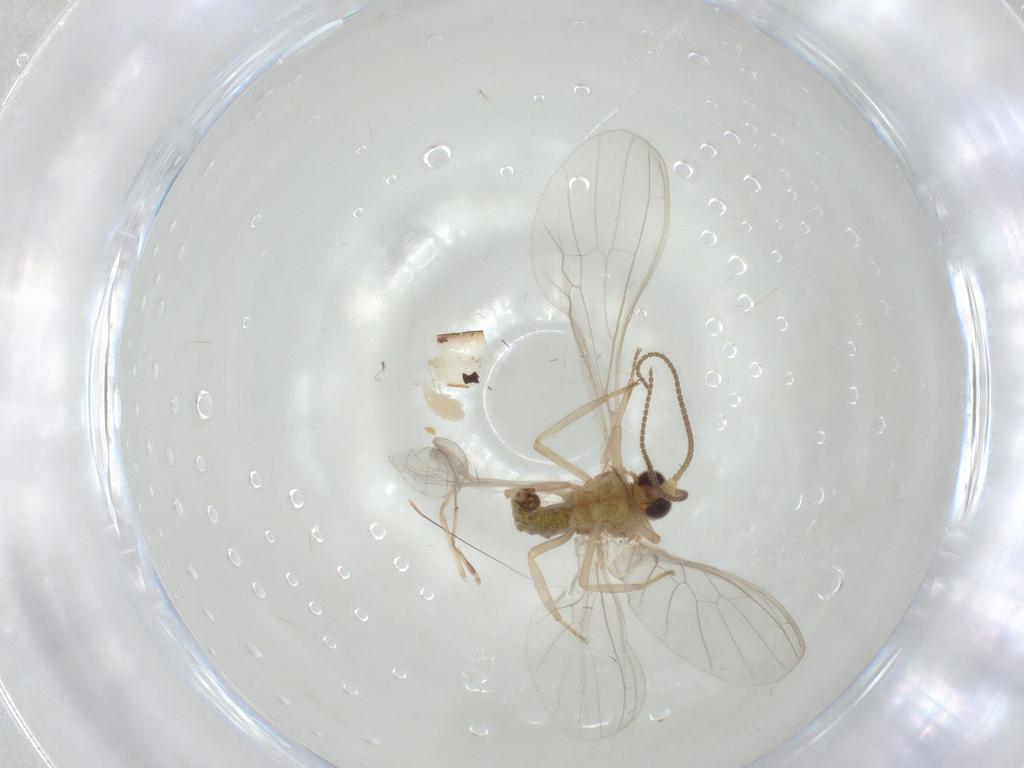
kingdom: Animalia
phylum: Arthropoda
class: Arachnida
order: Trombidiformes
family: Eupodidae
